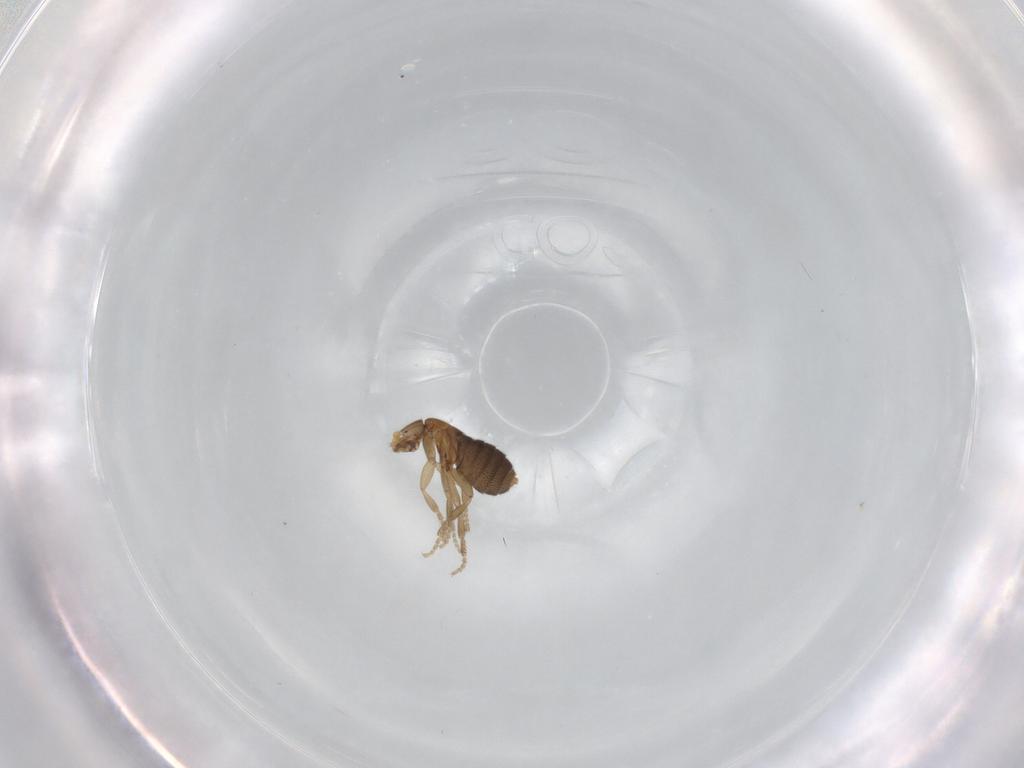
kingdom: Animalia
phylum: Arthropoda
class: Insecta
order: Diptera
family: Phoridae
